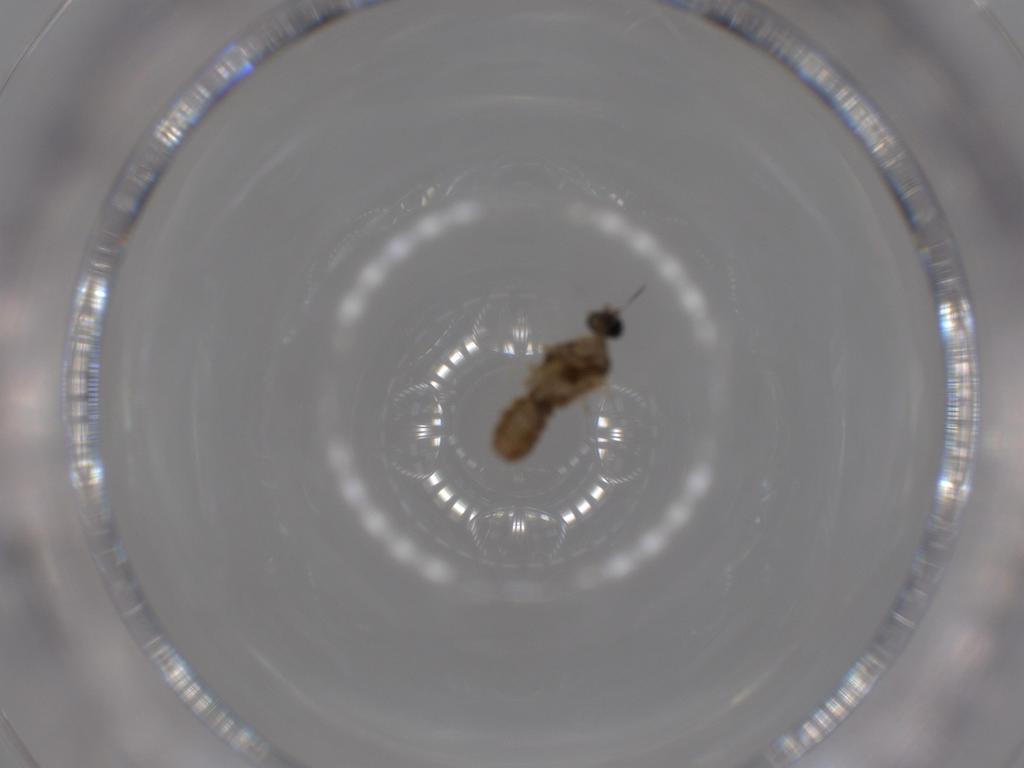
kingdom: Animalia
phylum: Arthropoda
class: Insecta
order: Diptera
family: Cecidomyiidae
